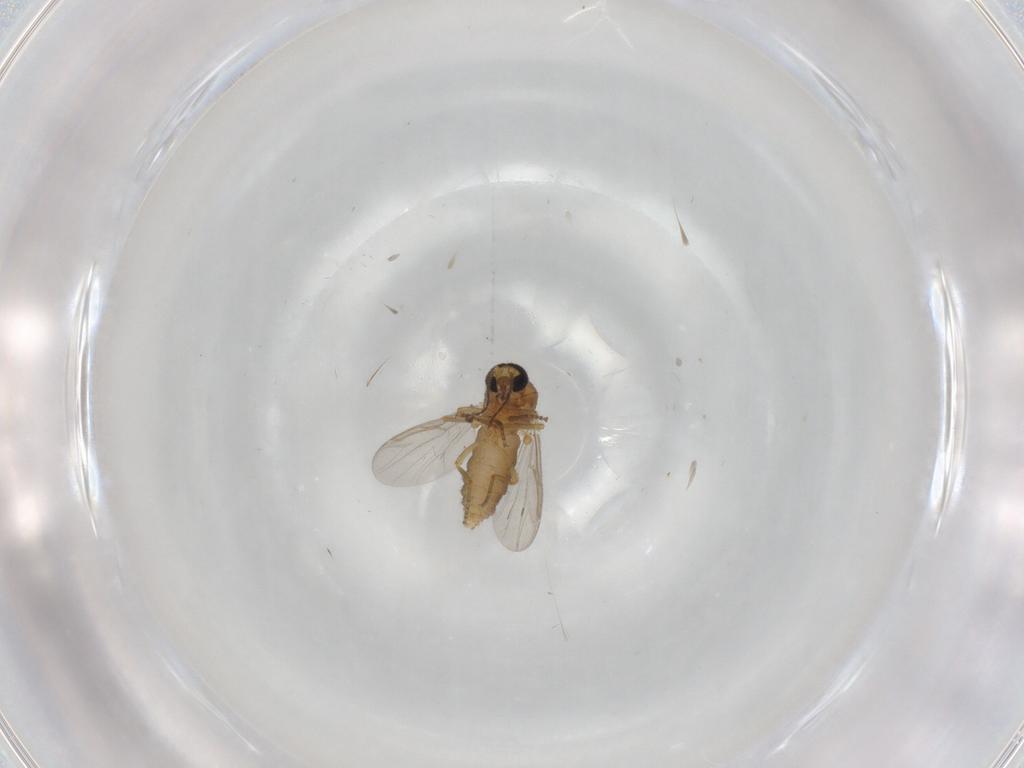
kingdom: Animalia
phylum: Arthropoda
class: Insecta
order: Diptera
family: Ceratopogonidae
